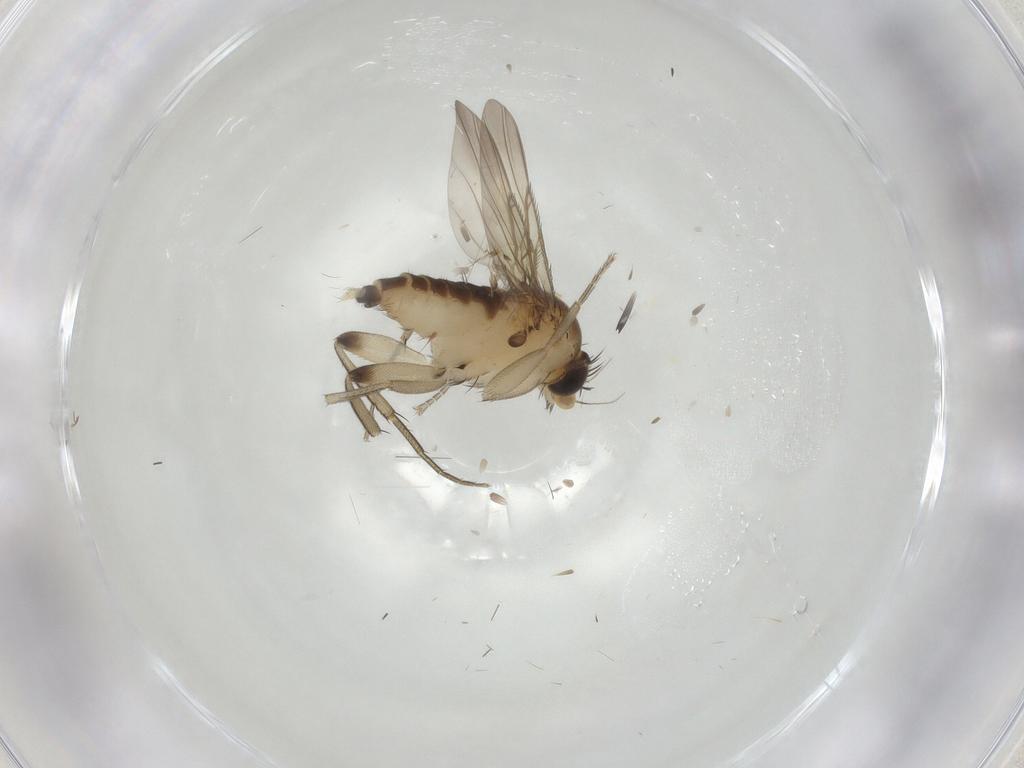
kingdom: Animalia
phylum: Arthropoda
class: Insecta
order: Diptera
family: Phoridae
